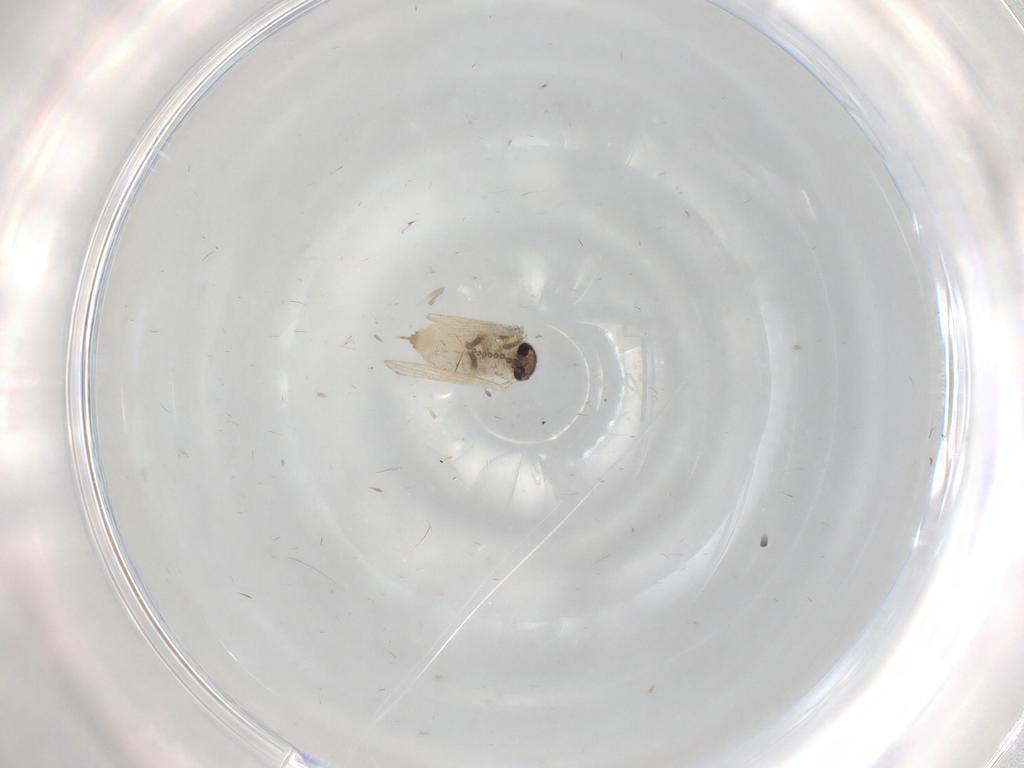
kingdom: Animalia
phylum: Arthropoda
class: Insecta
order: Diptera
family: Psychodidae
